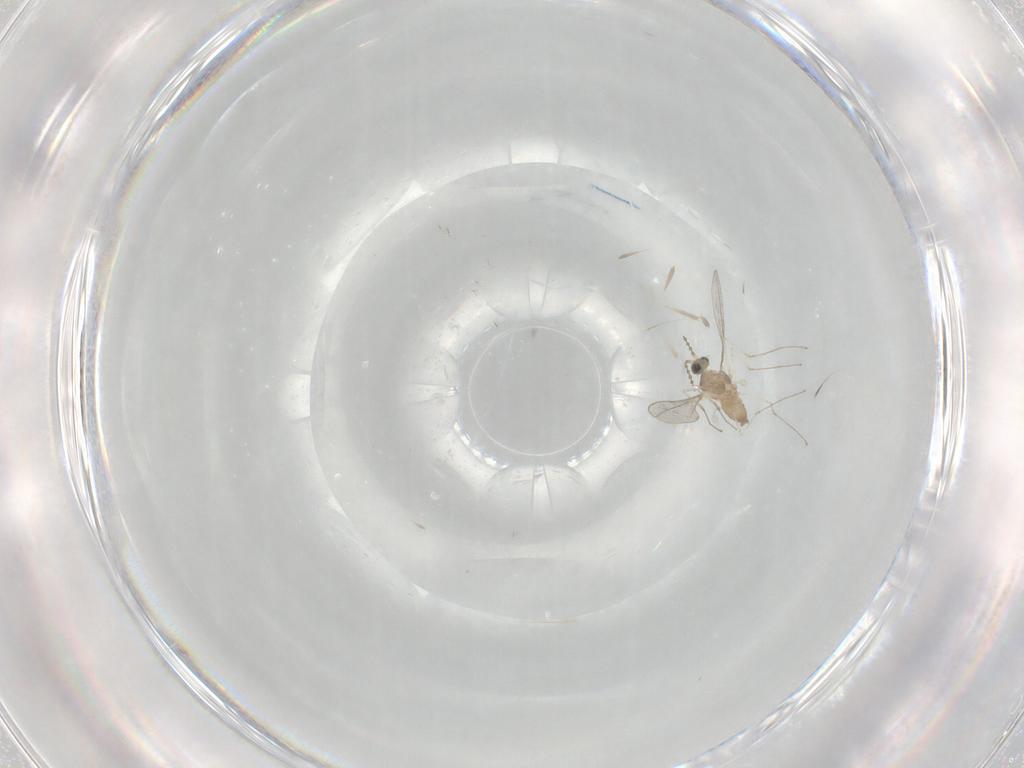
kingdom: Animalia
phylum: Arthropoda
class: Insecta
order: Diptera
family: Cecidomyiidae
